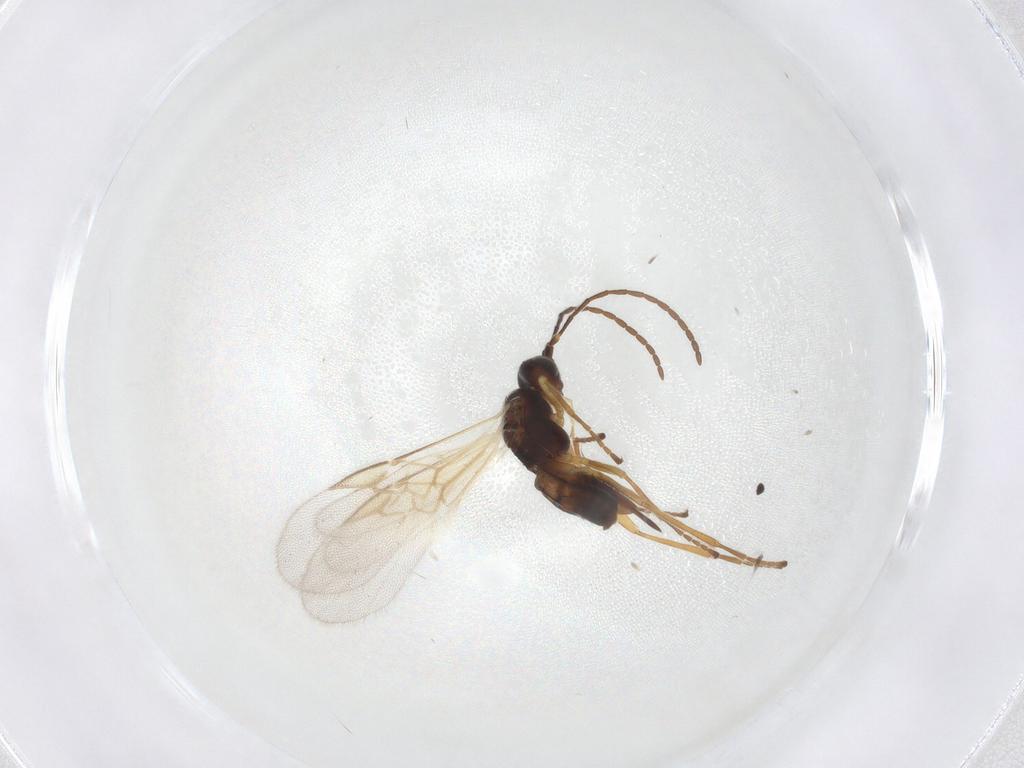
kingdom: Animalia
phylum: Arthropoda
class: Insecta
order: Hymenoptera
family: Braconidae
